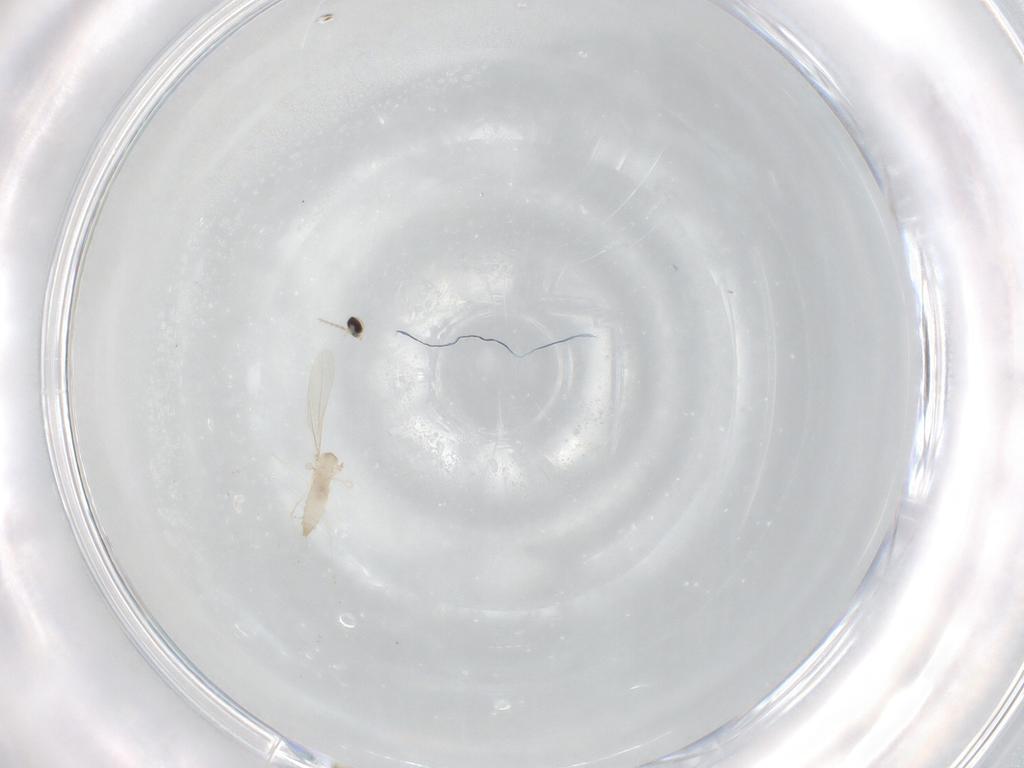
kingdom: Animalia
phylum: Arthropoda
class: Insecta
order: Diptera
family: Cecidomyiidae
